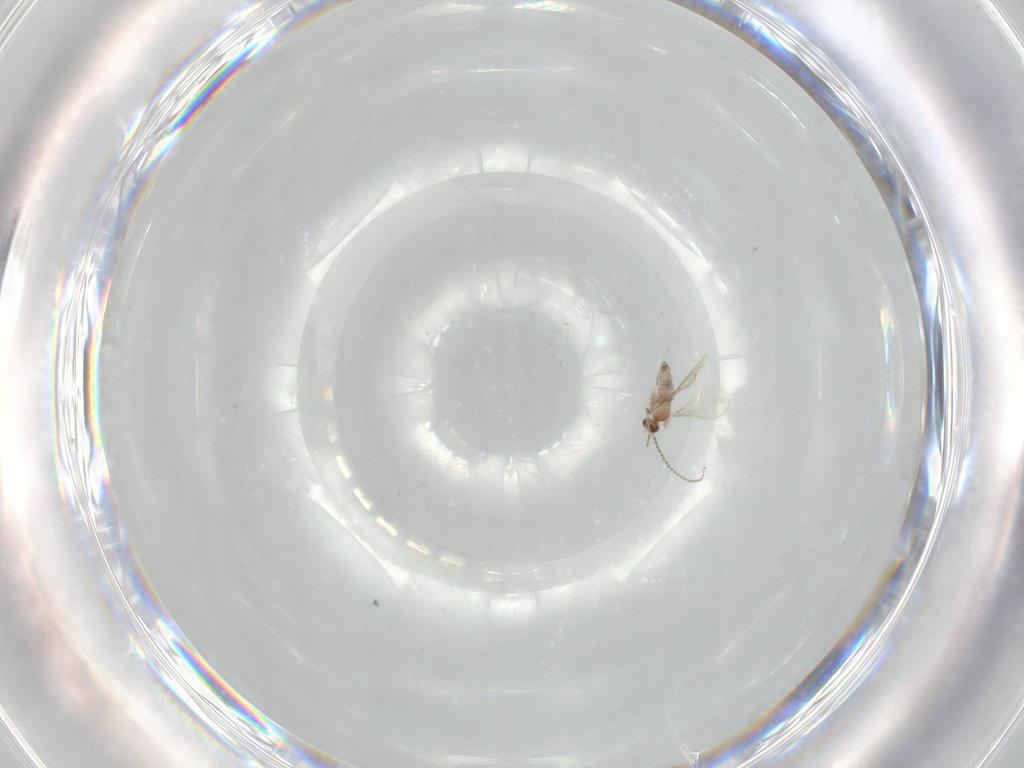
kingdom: Animalia
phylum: Arthropoda
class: Insecta
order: Diptera
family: Cecidomyiidae
